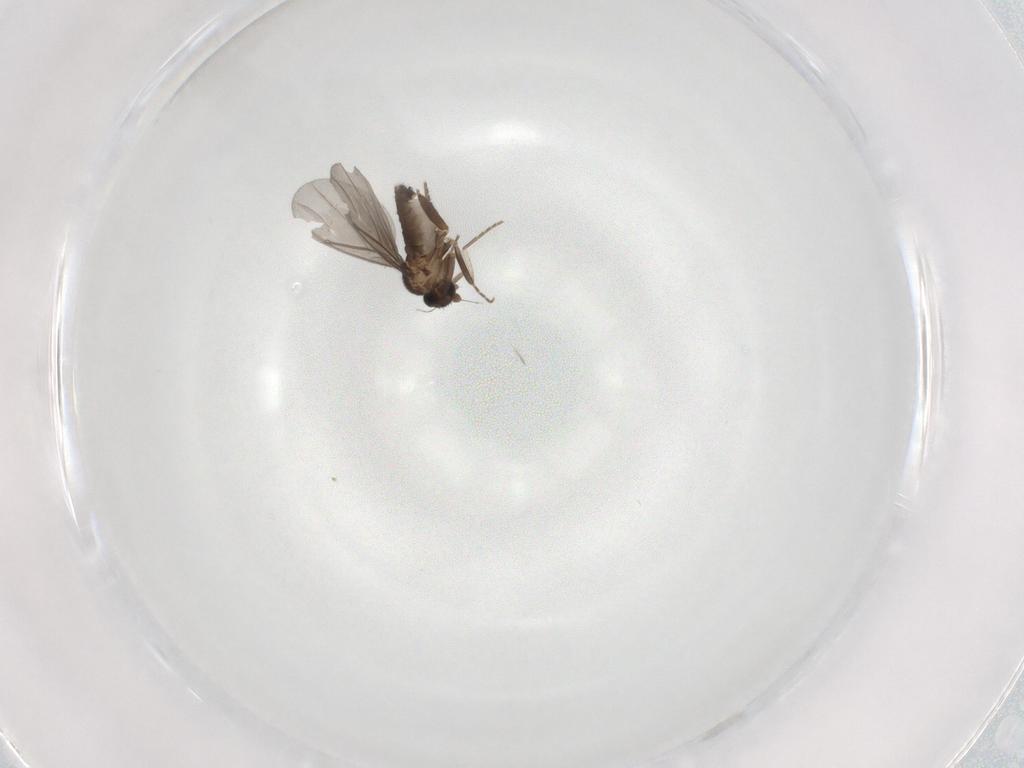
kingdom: Animalia
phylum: Arthropoda
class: Insecta
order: Diptera
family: Phoridae
